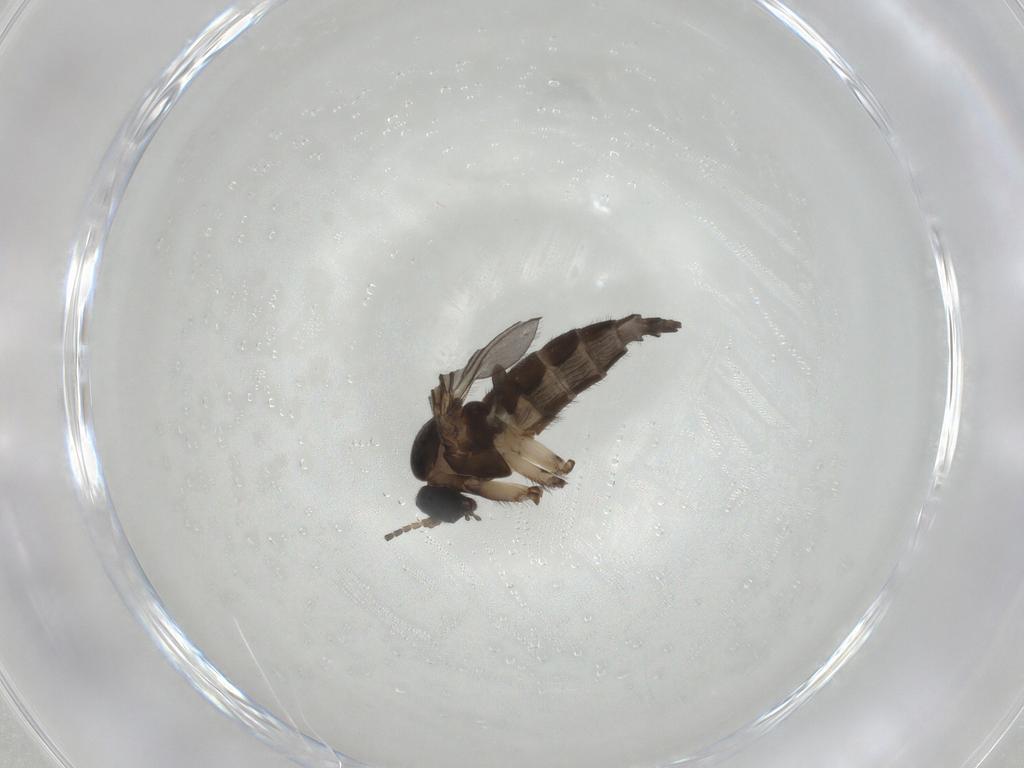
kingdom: Animalia
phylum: Arthropoda
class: Insecta
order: Diptera
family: Sciaridae
